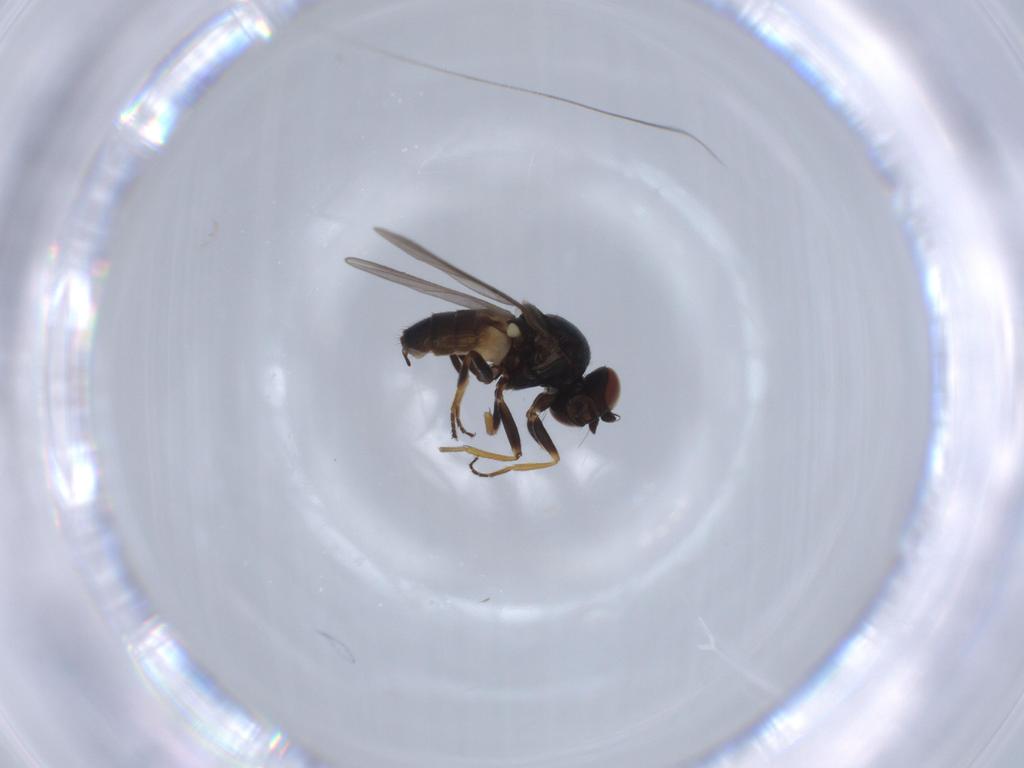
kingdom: Animalia
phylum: Arthropoda
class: Insecta
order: Diptera
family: Chloropidae
